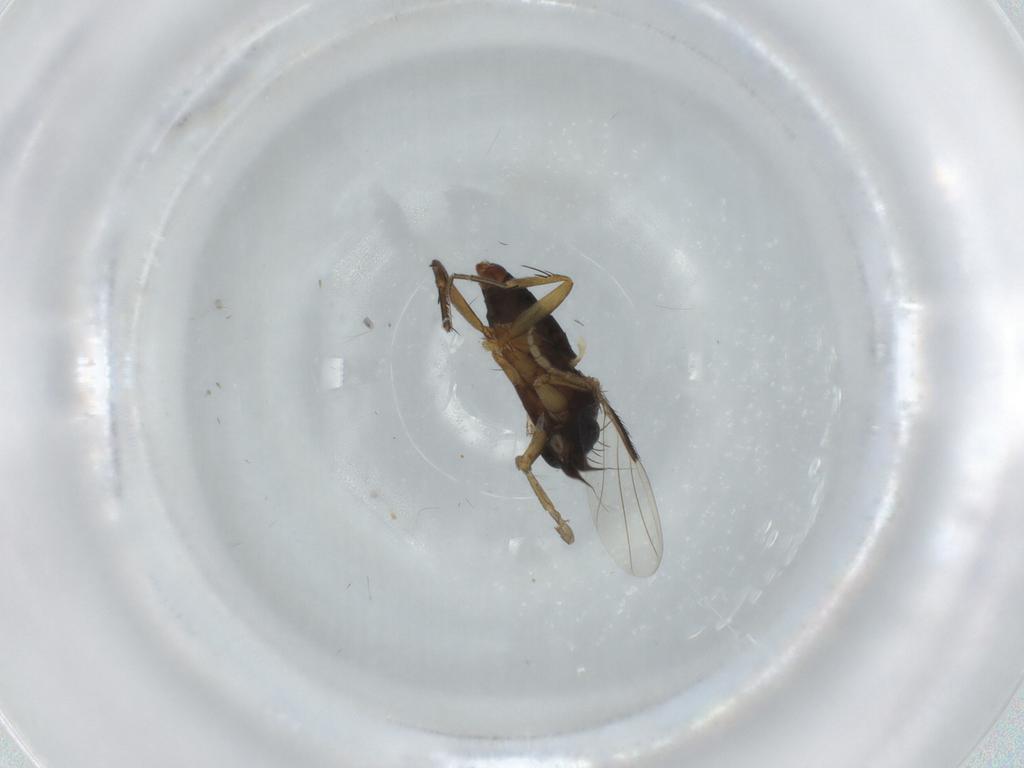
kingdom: Animalia
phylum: Arthropoda
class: Insecta
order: Diptera
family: Phoridae
